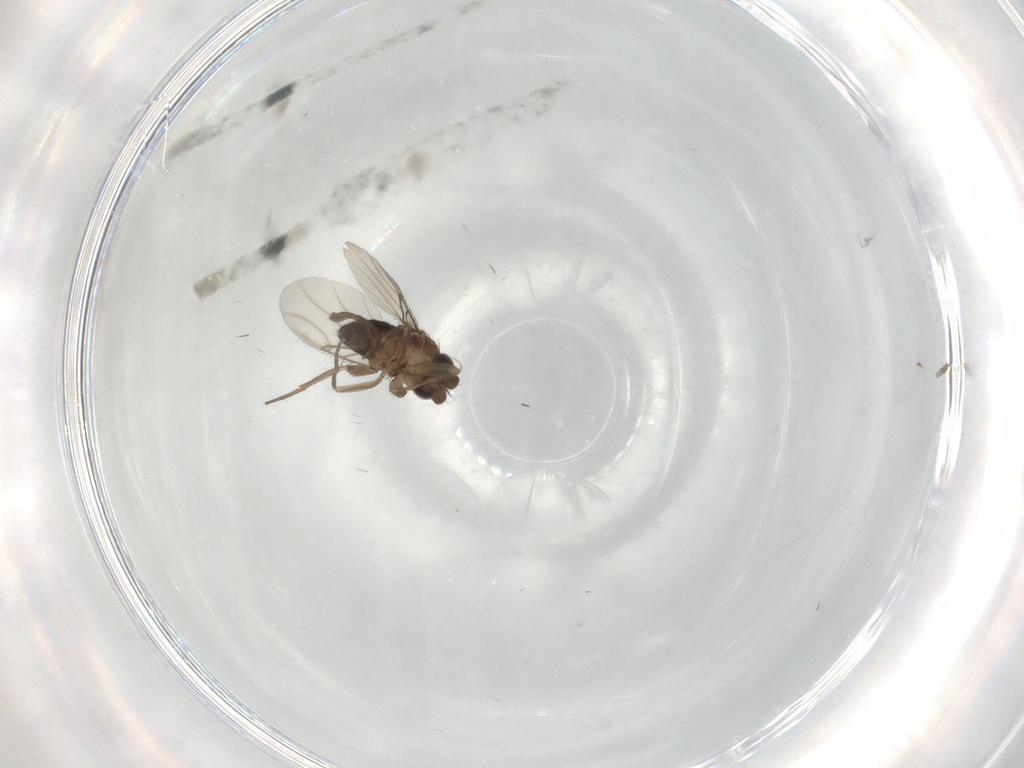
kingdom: Animalia
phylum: Arthropoda
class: Insecta
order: Diptera
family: Phoridae
